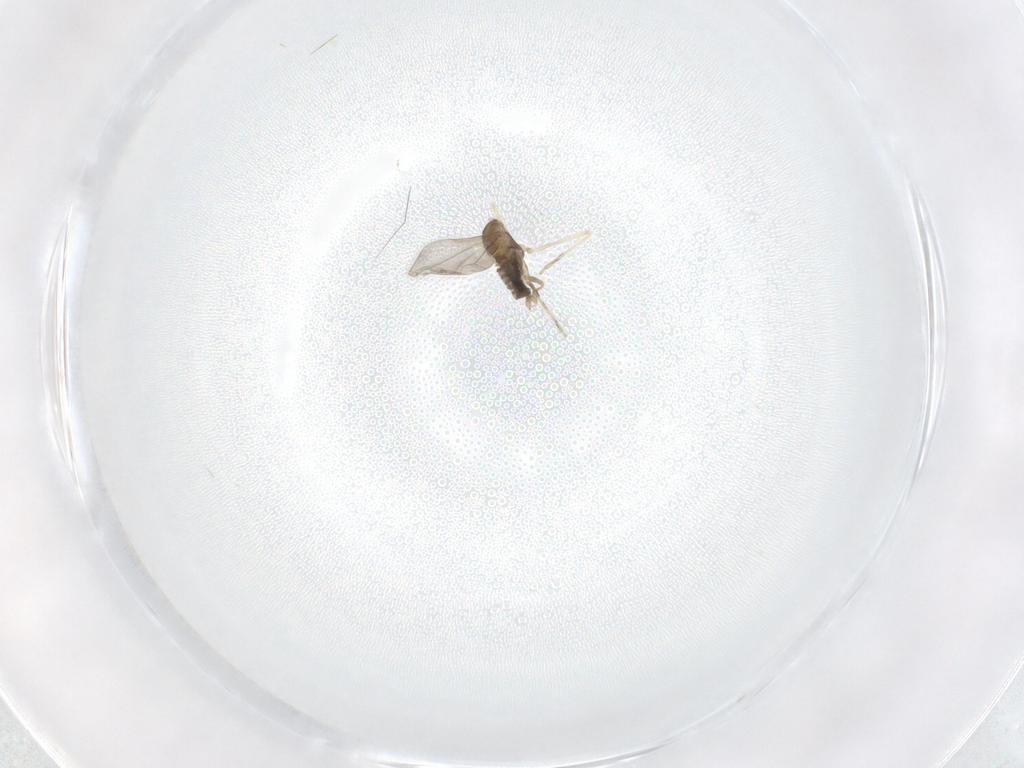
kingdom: Animalia
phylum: Arthropoda
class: Insecta
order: Diptera
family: Cecidomyiidae
